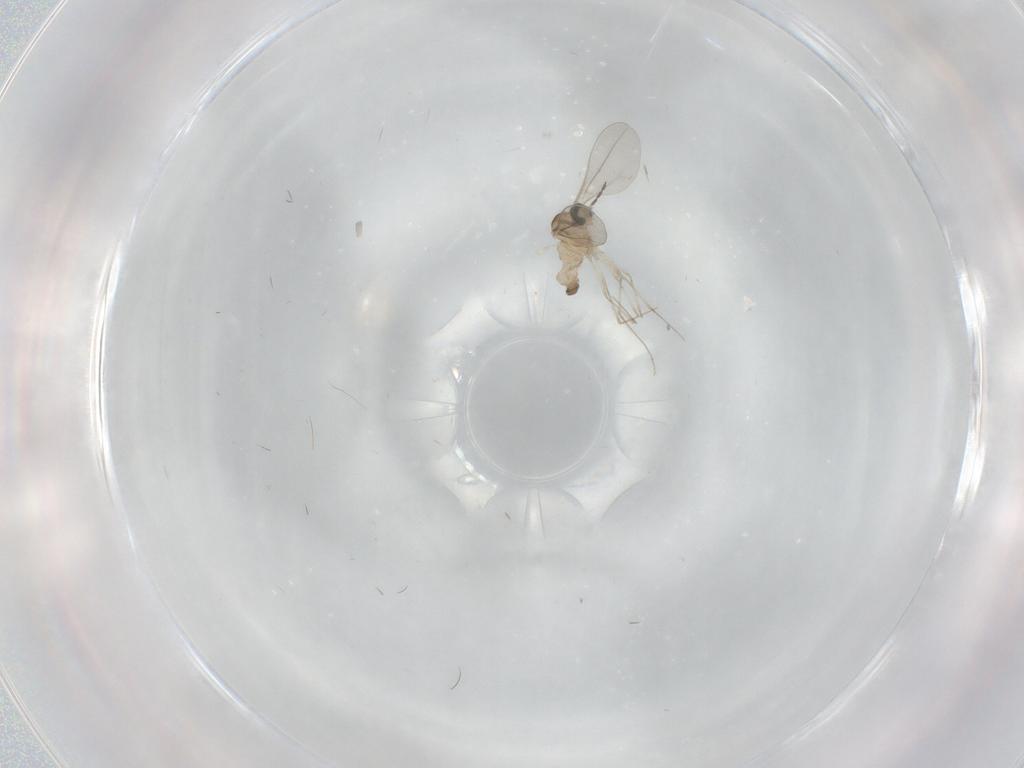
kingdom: Animalia
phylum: Arthropoda
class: Insecta
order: Diptera
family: Cecidomyiidae
